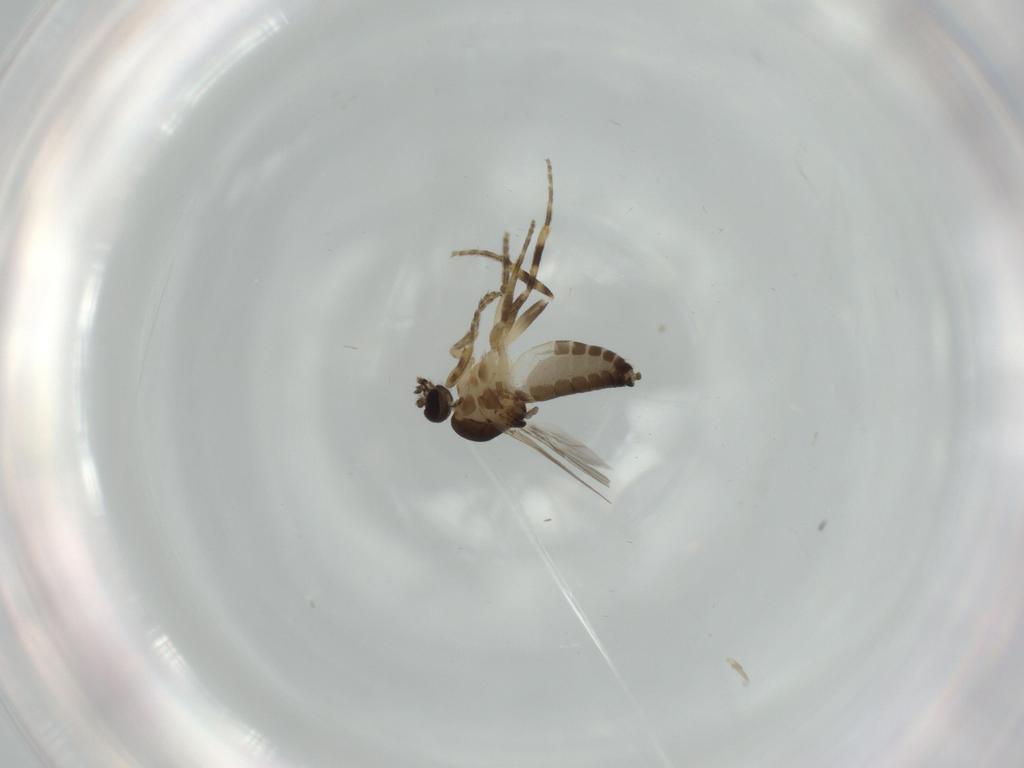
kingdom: Animalia
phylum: Arthropoda
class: Insecta
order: Diptera
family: Ceratopogonidae
